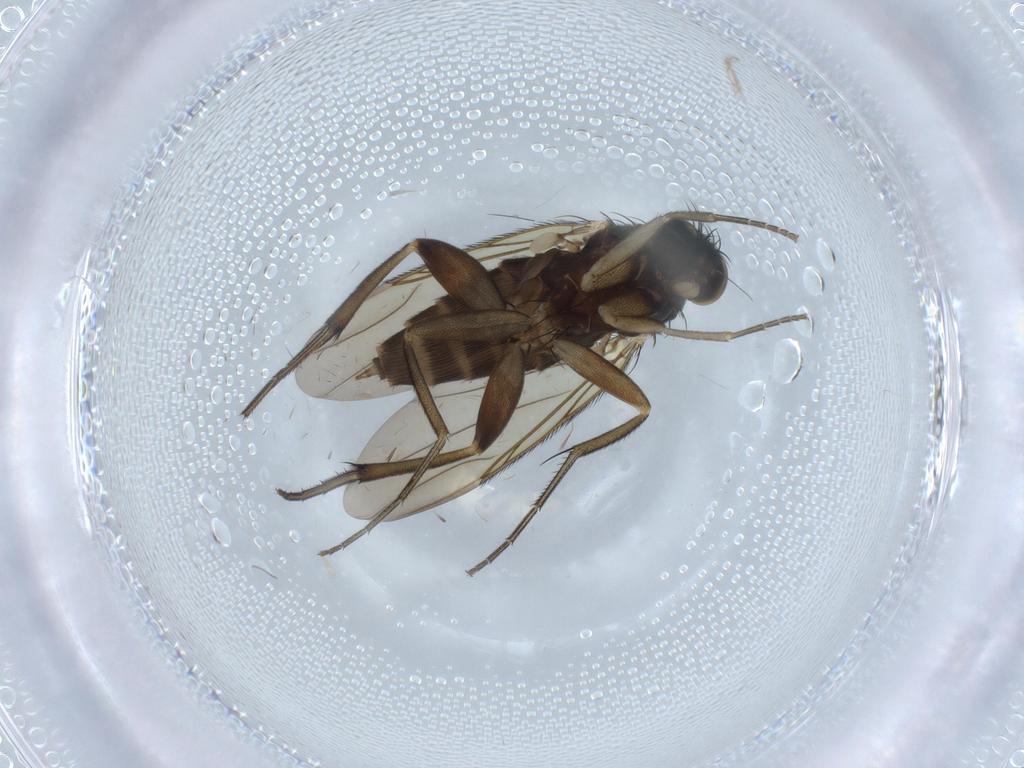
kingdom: Animalia
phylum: Arthropoda
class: Insecta
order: Diptera
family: Phoridae
